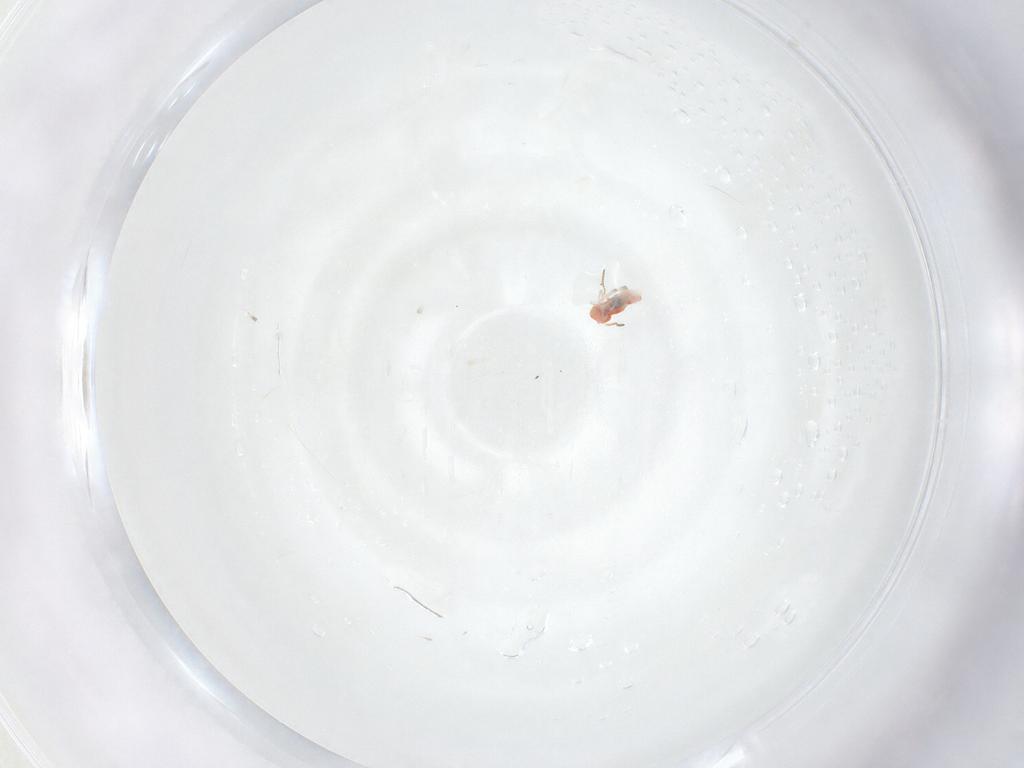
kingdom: Animalia
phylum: Arthropoda
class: Collembola
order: Symphypleona
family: Bourletiellidae
